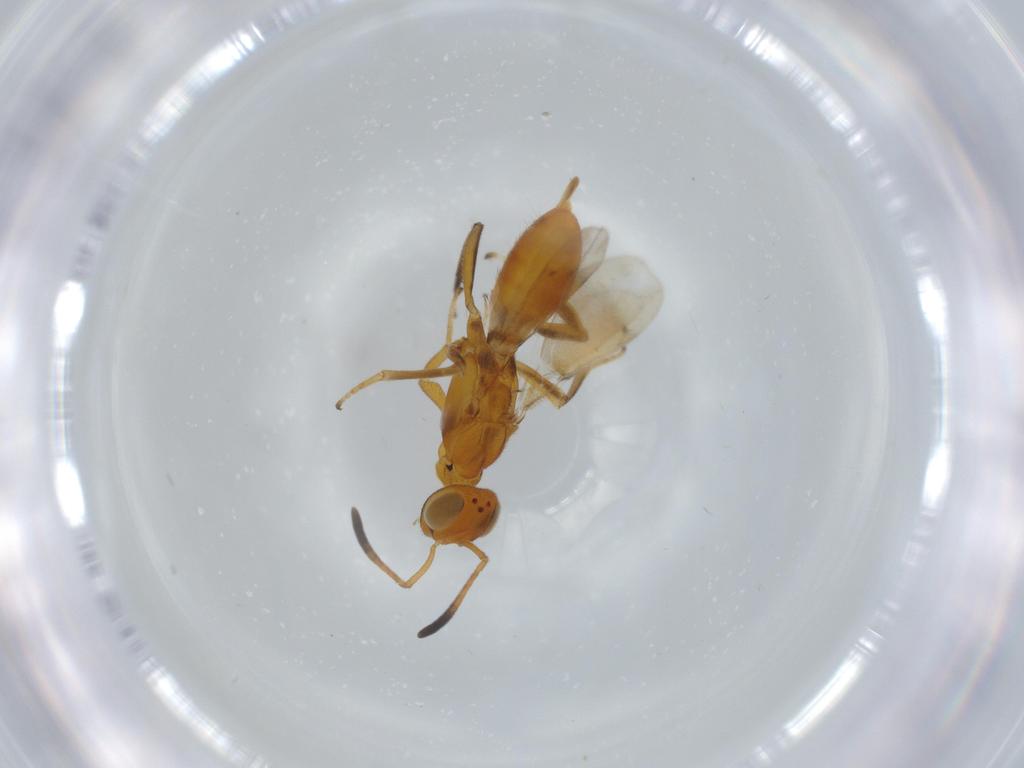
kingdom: Animalia
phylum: Arthropoda
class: Insecta
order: Hymenoptera
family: Eupelmidae
